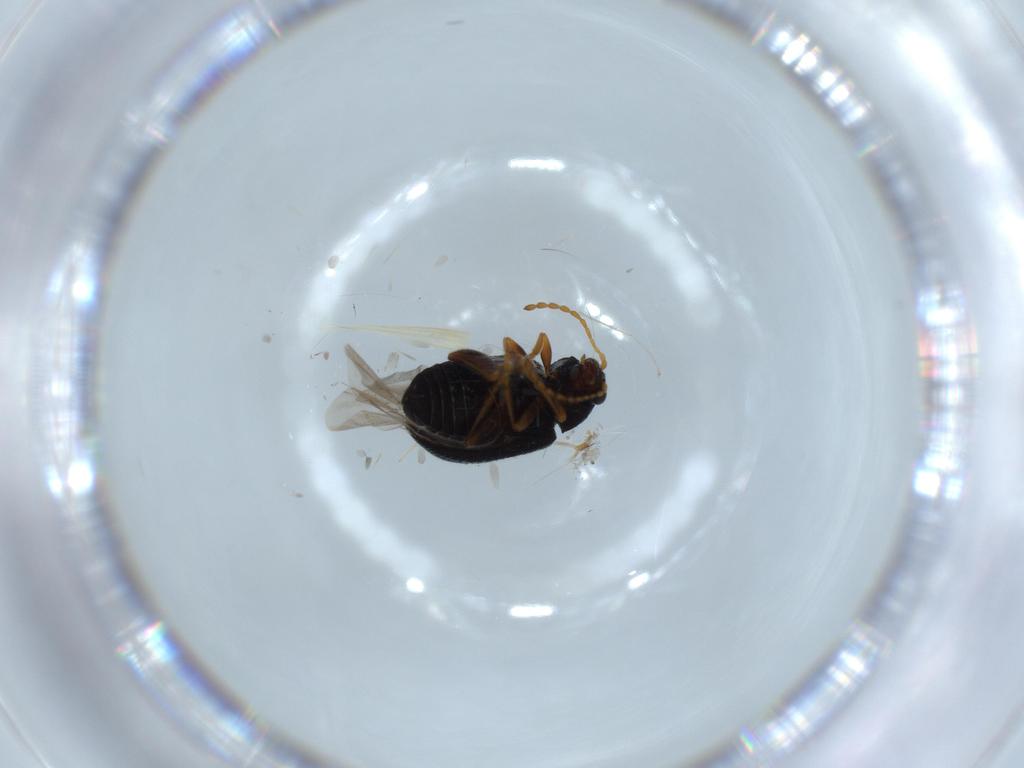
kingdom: Animalia
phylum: Arthropoda
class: Insecta
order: Coleoptera
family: Chrysomelidae
